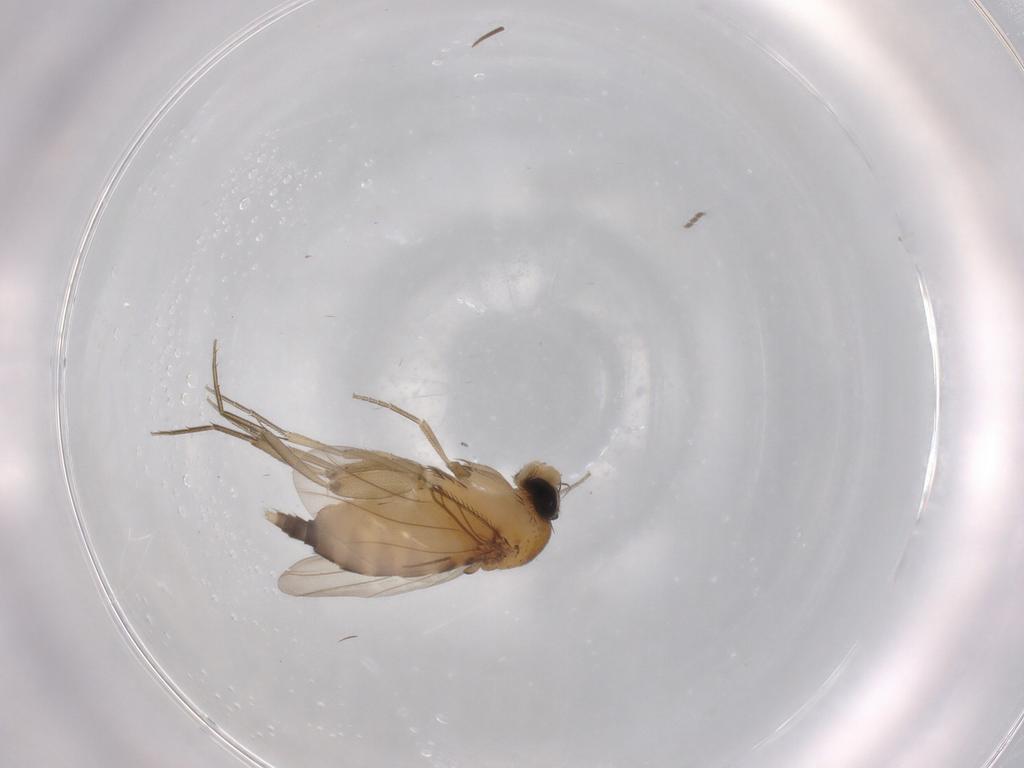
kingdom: Animalia
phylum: Arthropoda
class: Insecta
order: Diptera
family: Phoridae
